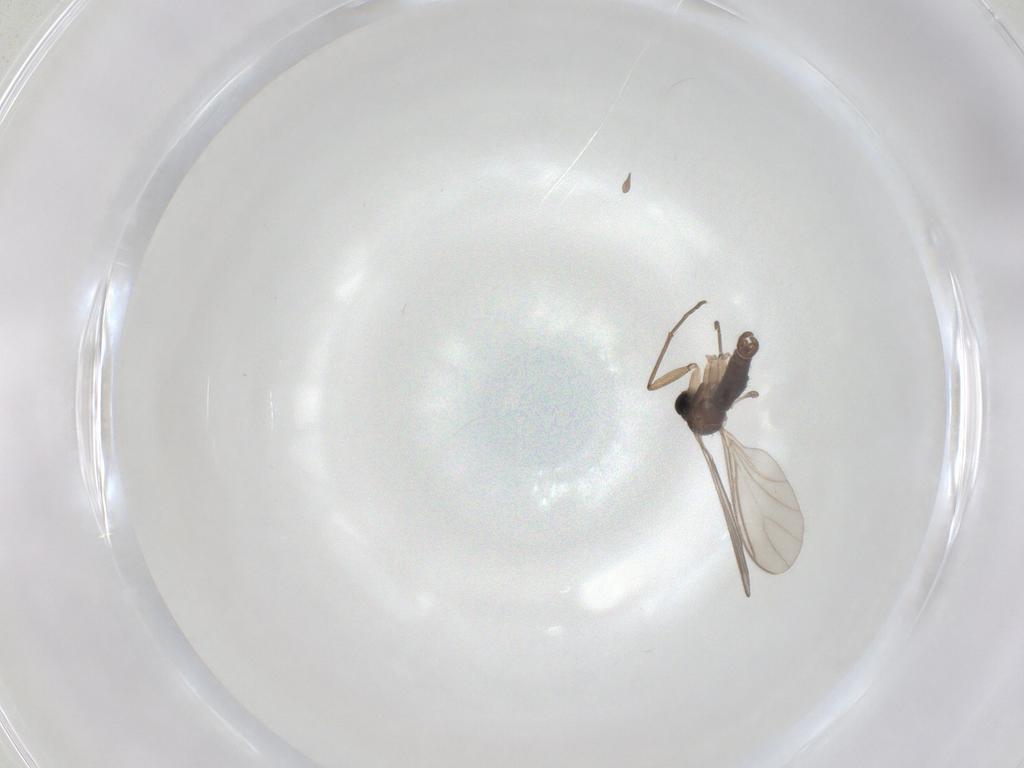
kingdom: Animalia
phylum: Arthropoda
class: Insecta
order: Diptera
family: Sciaridae
